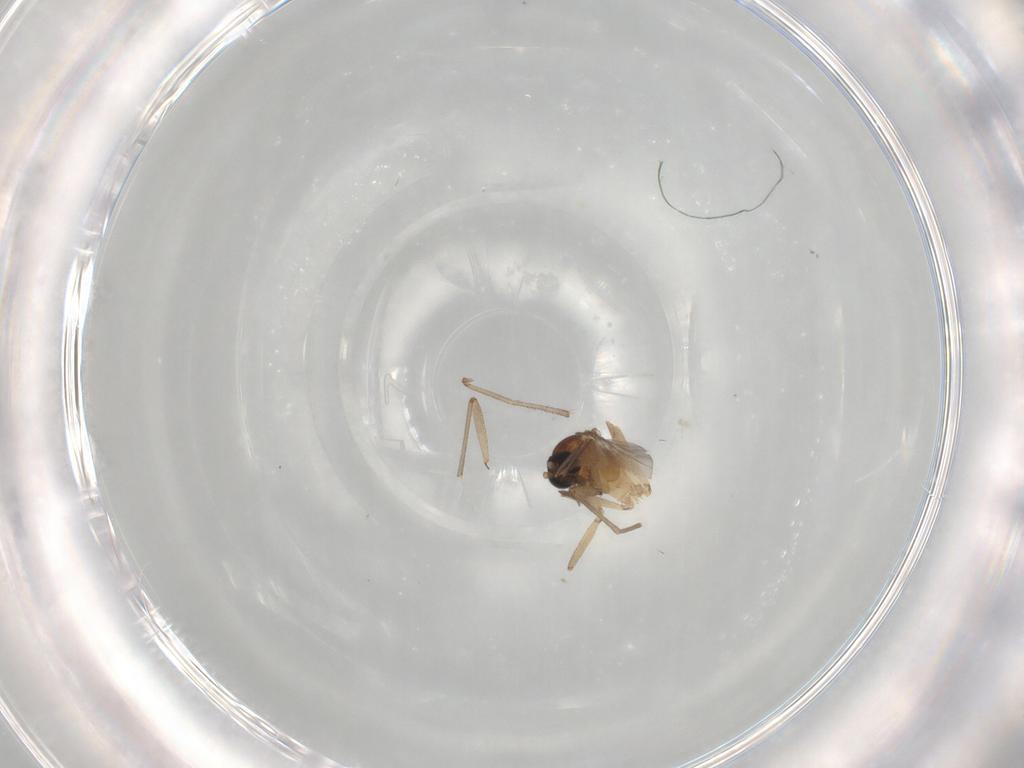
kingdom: Animalia
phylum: Arthropoda
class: Insecta
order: Diptera
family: Sciaridae
